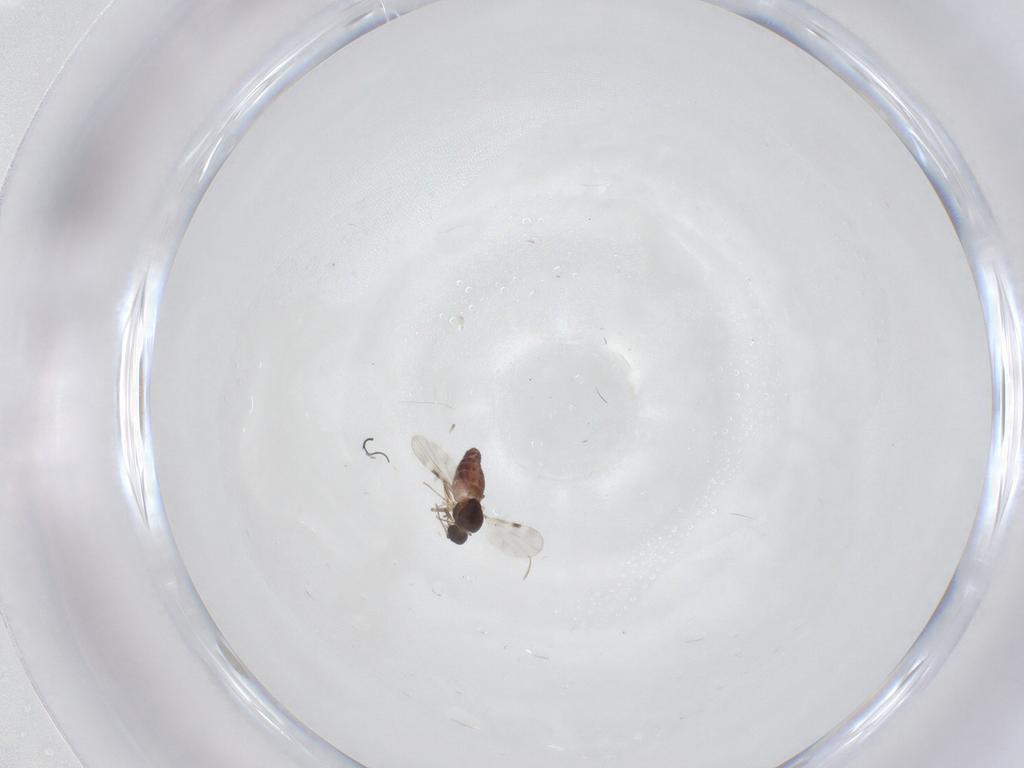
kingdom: Animalia
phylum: Arthropoda
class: Insecta
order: Diptera
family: Sphaeroceridae
